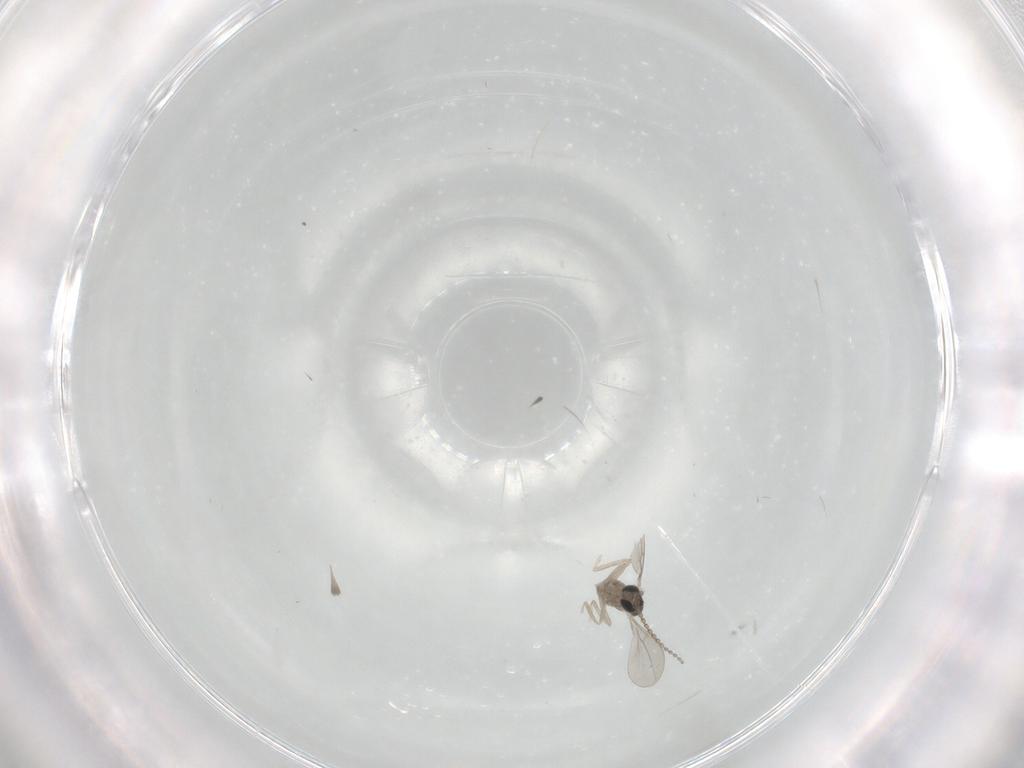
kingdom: Animalia
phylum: Arthropoda
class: Insecta
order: Diptera
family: Cecidomyiidae
